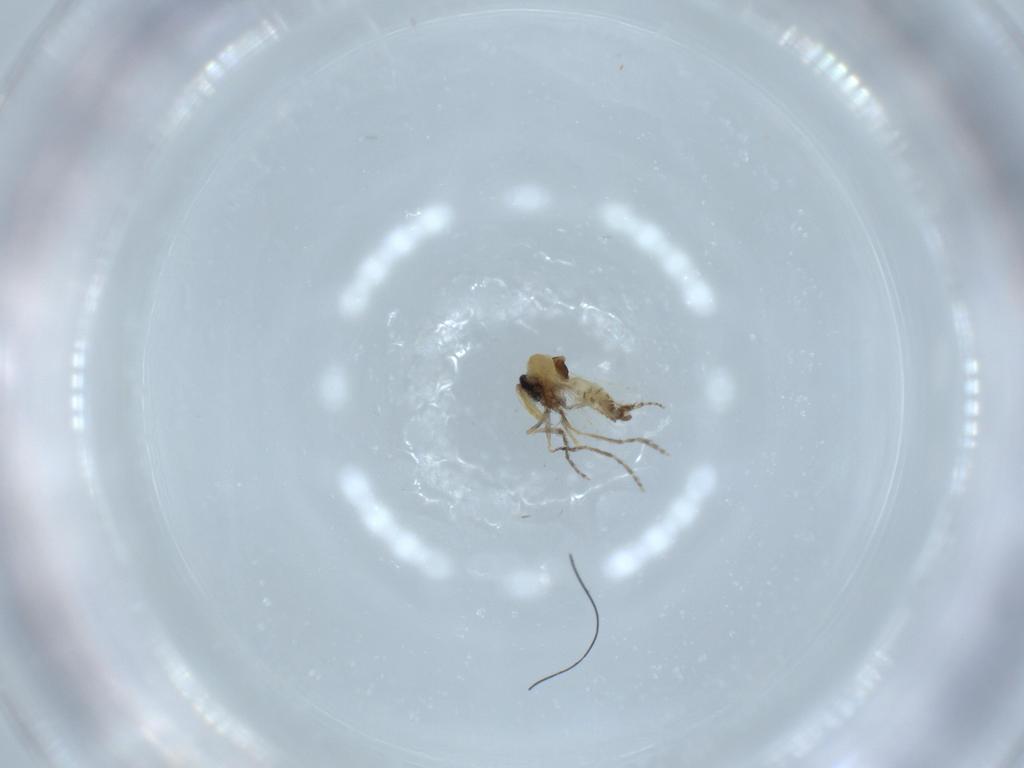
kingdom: Animalia
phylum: Arthropoda
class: Insecta
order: Diptera
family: Ceratopogonidae
